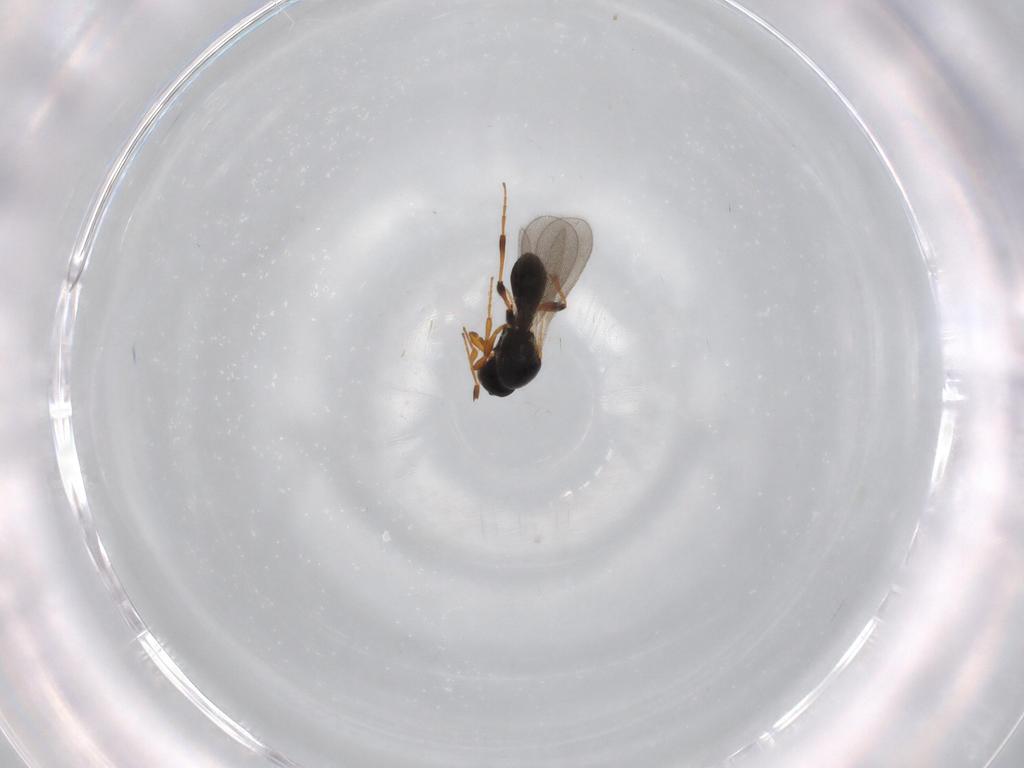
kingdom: Animalia
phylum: Arthropoda
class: Insecta
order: Hymenoptera
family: Platygastridae
